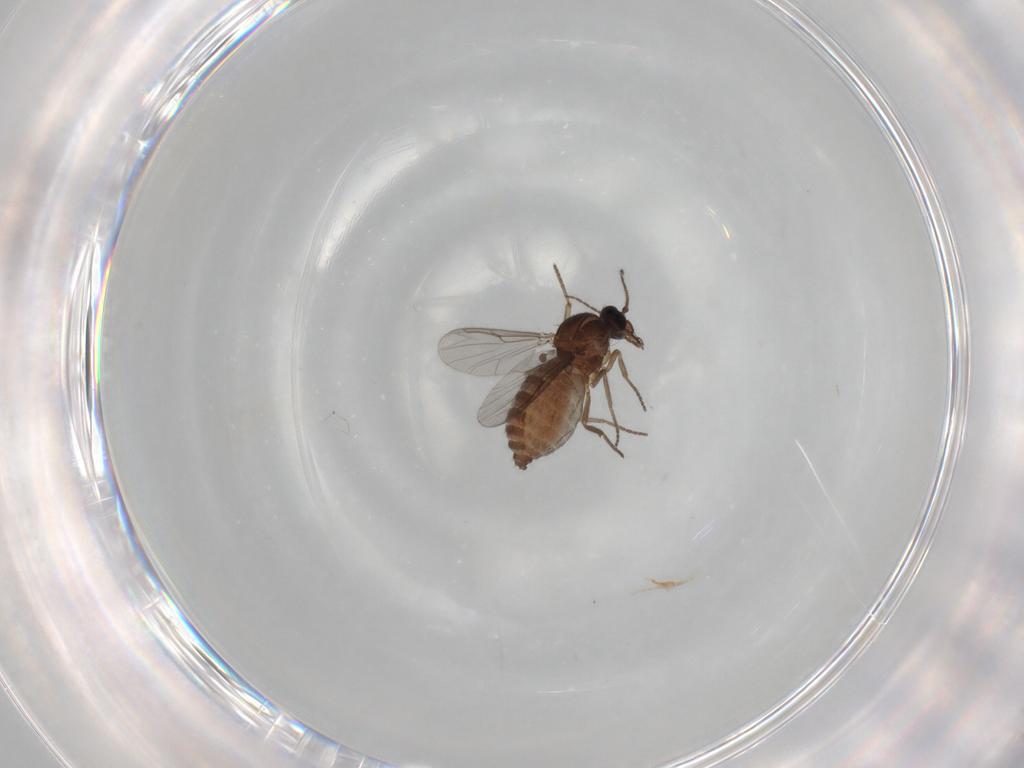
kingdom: Animalia
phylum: Arthropoda
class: Insecta
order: Diptera
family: Ceratopogonidae
